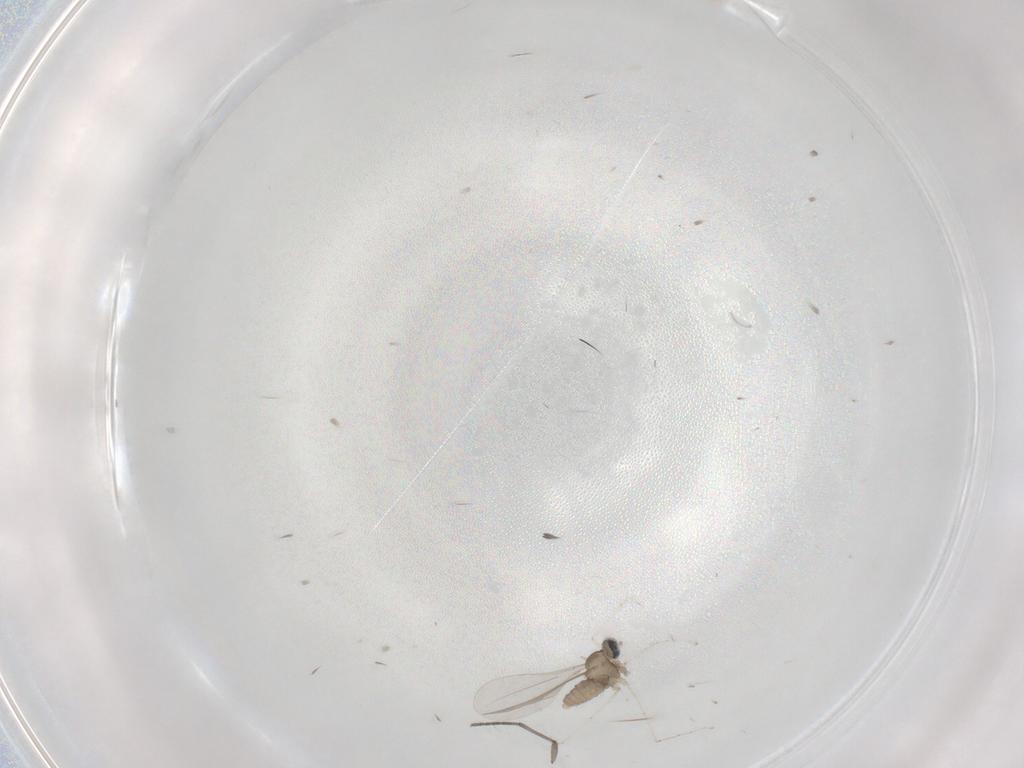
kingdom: Animalia
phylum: Arthropoda
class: Insecta
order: Diptera
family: Sciaridae
